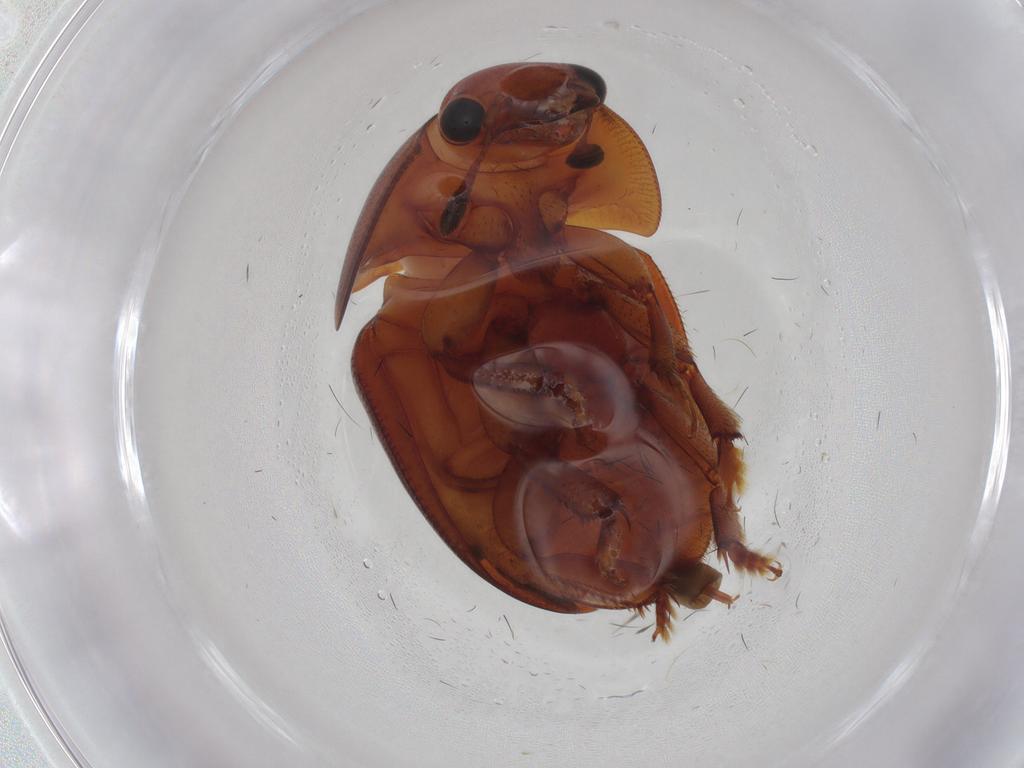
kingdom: Animalia
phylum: Arthropoda
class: Insecta
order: Coleoptera
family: Nitidulidae
